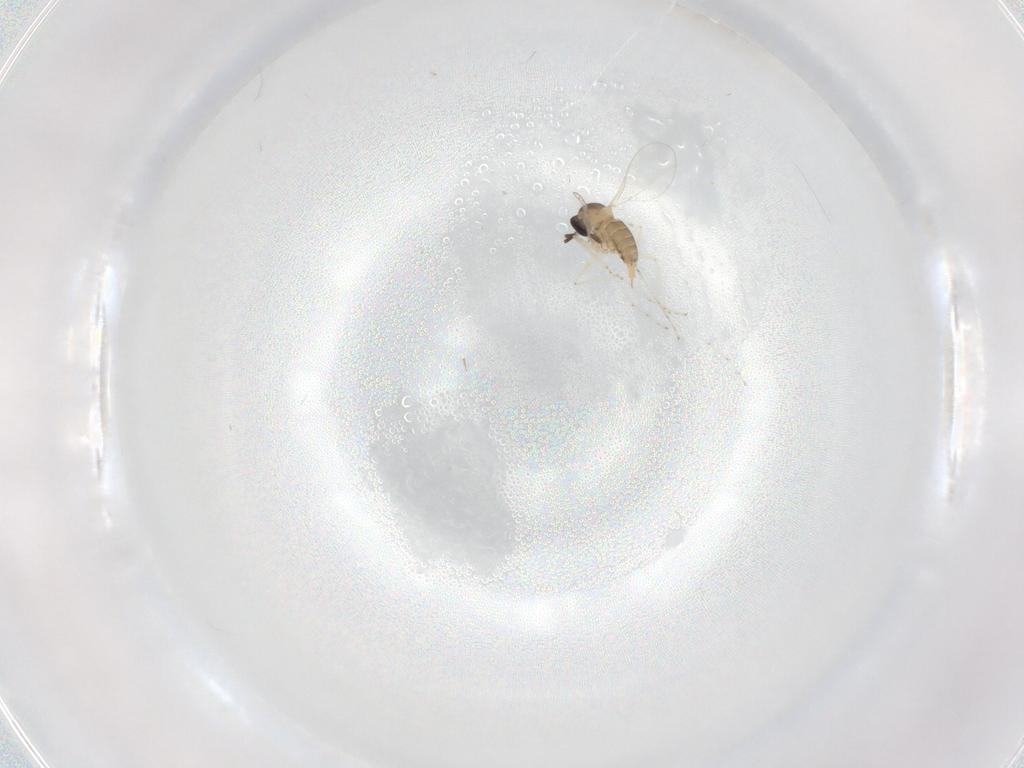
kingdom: Animalia
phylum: Arthropoda
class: Insecta
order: Diptera
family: Cecidomyiidae
